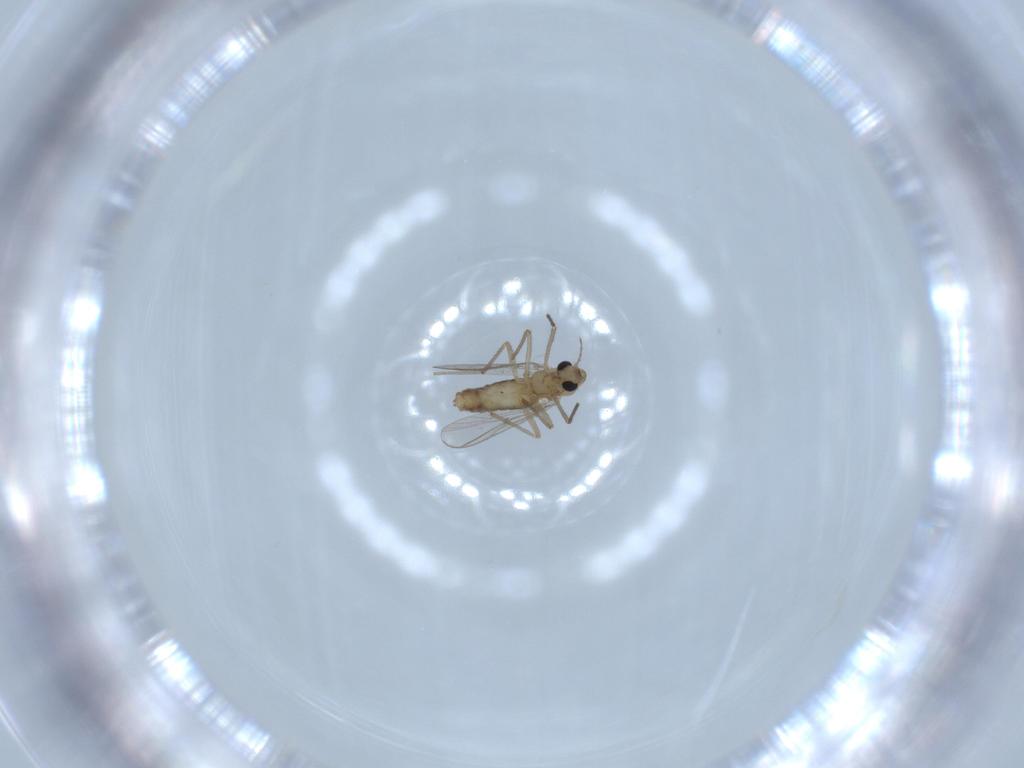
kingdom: Animalia
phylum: Arthropoda
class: Insecta
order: Diptera
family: Chironomidae
